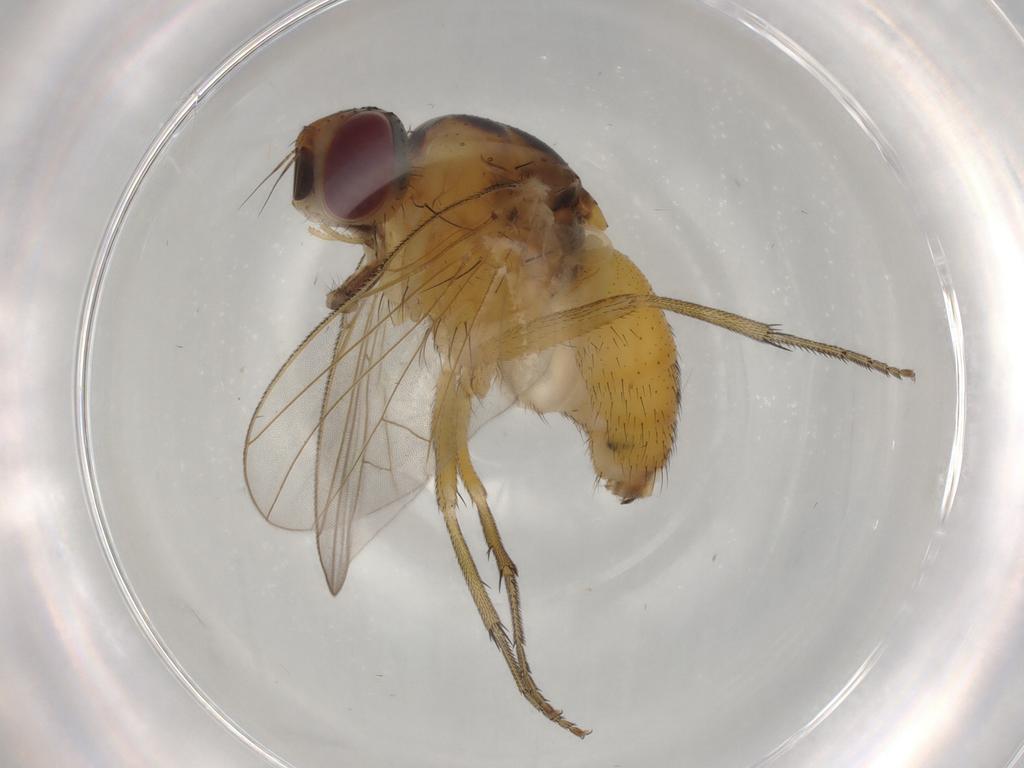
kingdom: Animalia
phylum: Arthropoda
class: Insecta
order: Diptera
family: Muscidae
